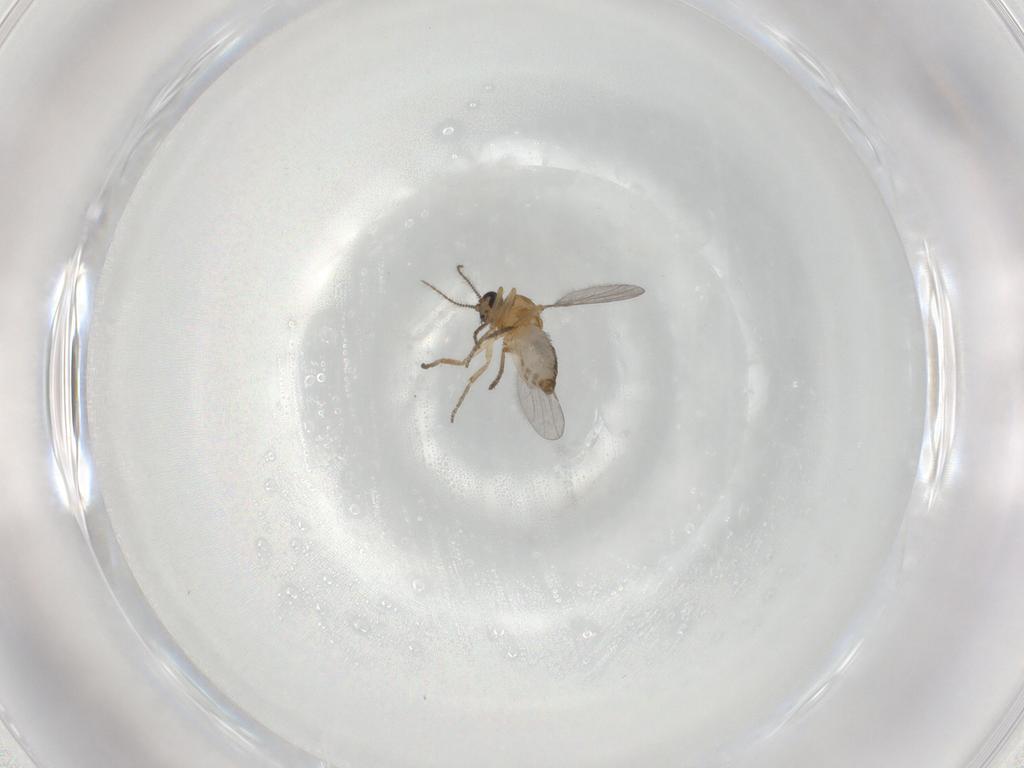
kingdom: Animalia
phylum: Arthropoda
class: Insecta
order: Diptera
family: Ceratopogonidae
